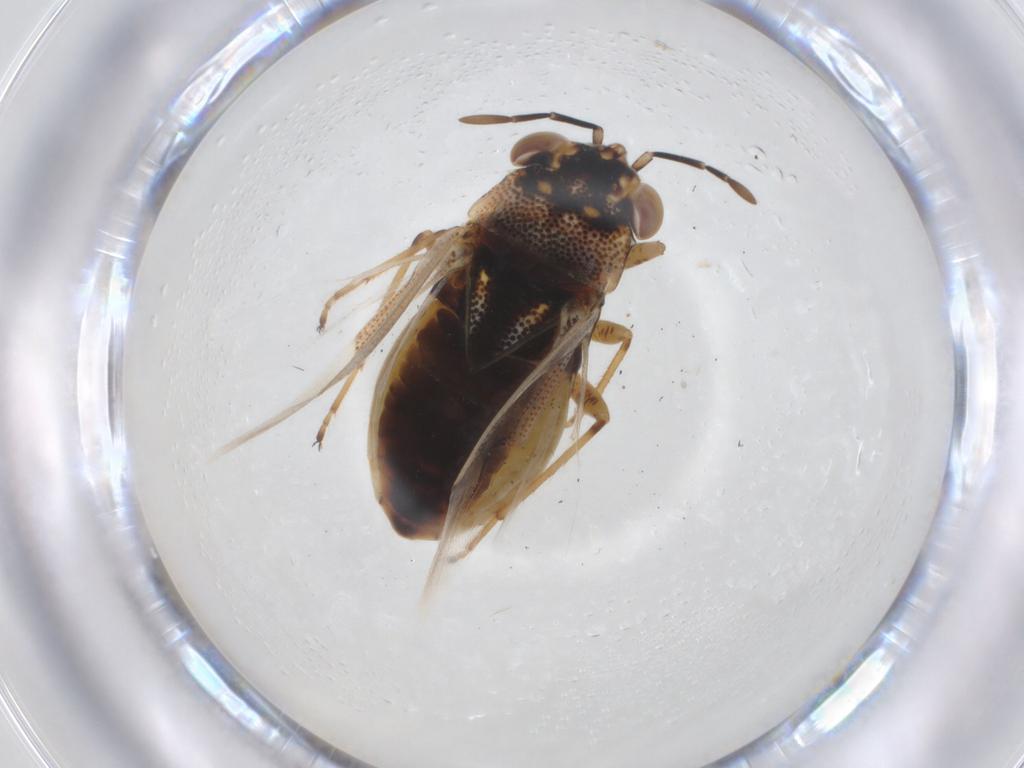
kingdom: Animalia
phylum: Arthropoda
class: Insecta
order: Hemiptera
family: Geocoridae
